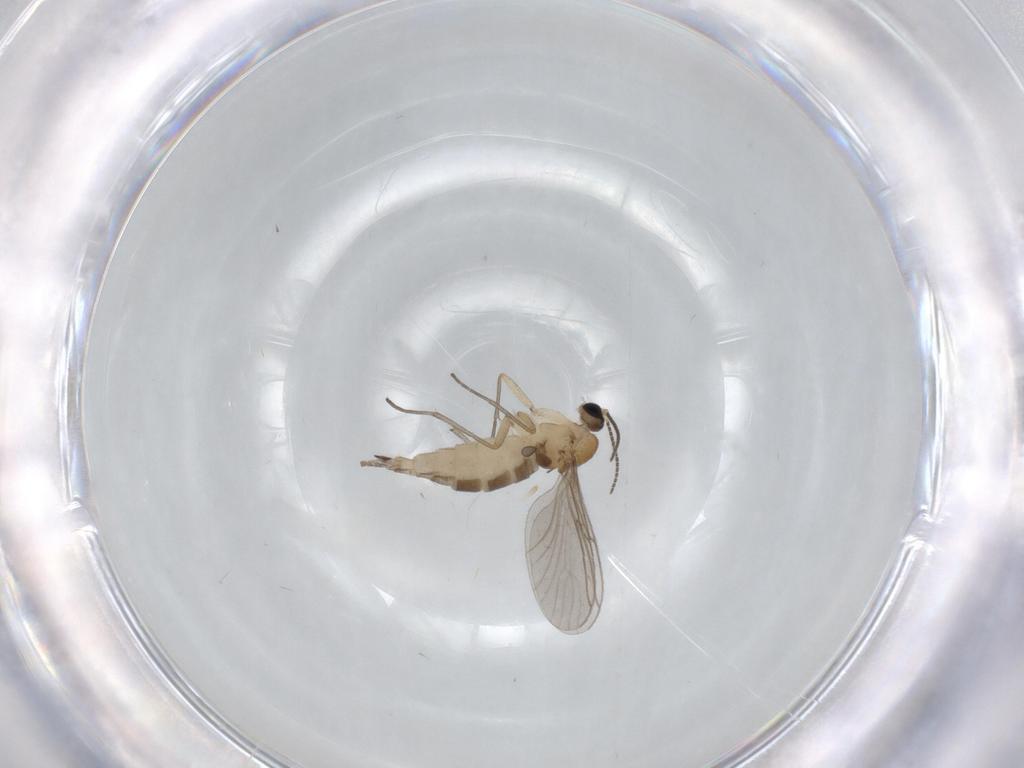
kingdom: Animalia
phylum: Arthropoda
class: Insecta
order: Diptera
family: Sciaridae
